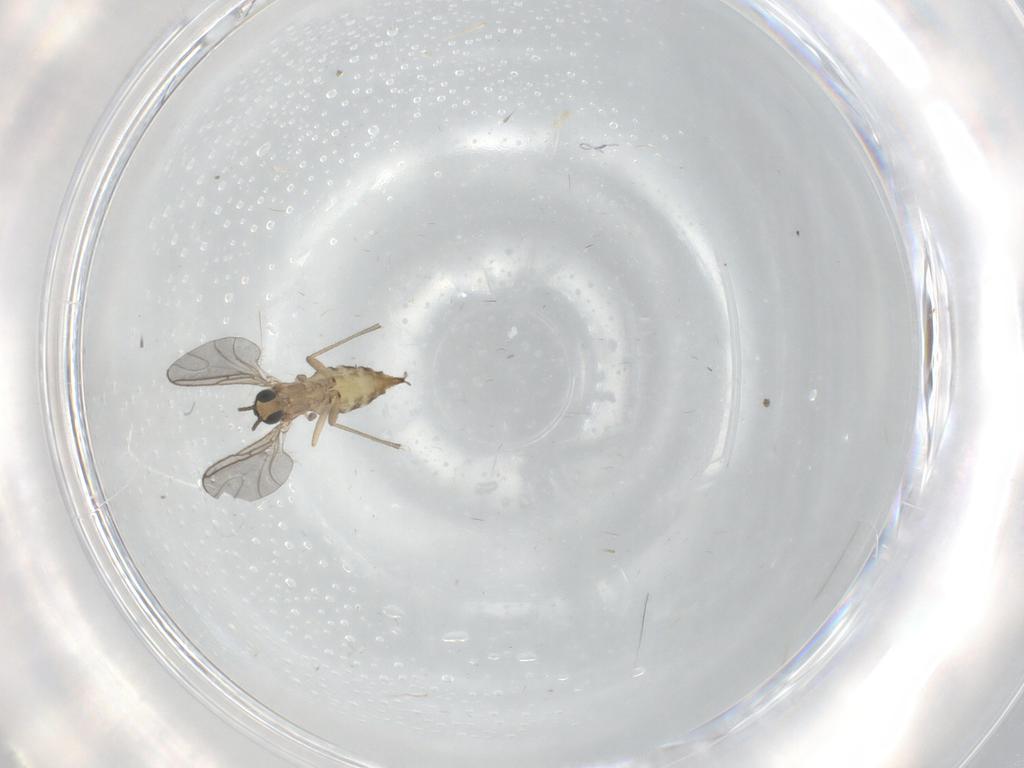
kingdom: Animalia
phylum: Arthropoda
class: Insecta
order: Diptera
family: Sciaridae
